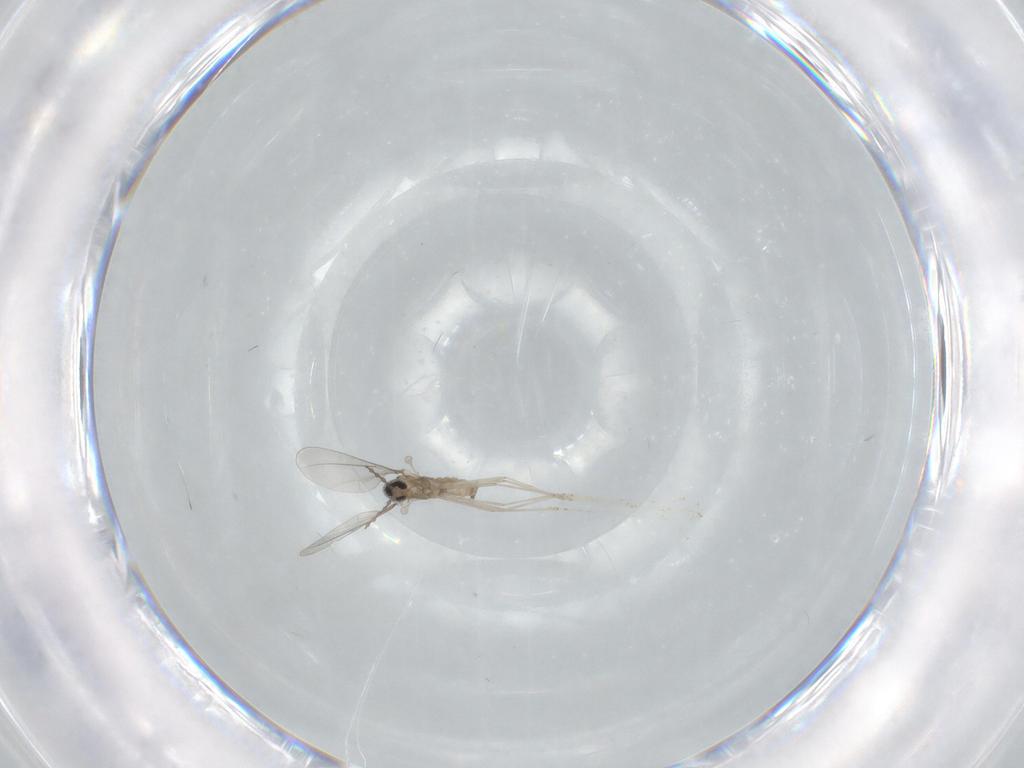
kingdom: Animalia
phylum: Arthropoda
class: Insecta
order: Diptera
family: Cecidomyiidae
